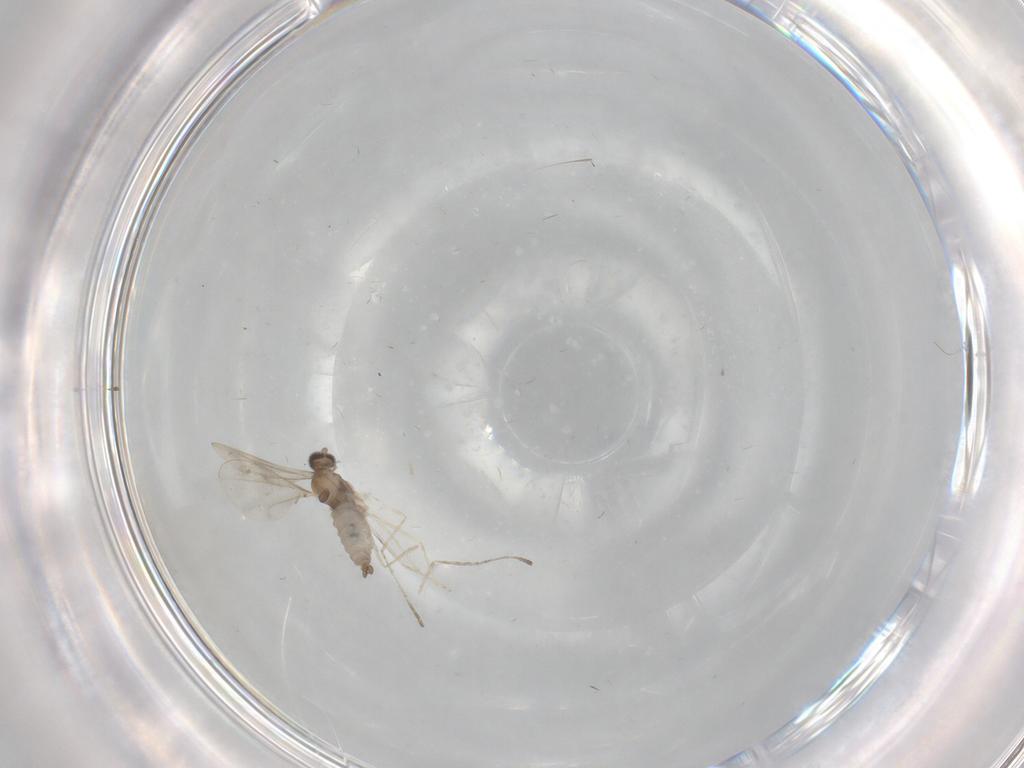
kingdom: Animalia
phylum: Arthropoda
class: Insecta
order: Diptera
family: Cecidomyiidae
